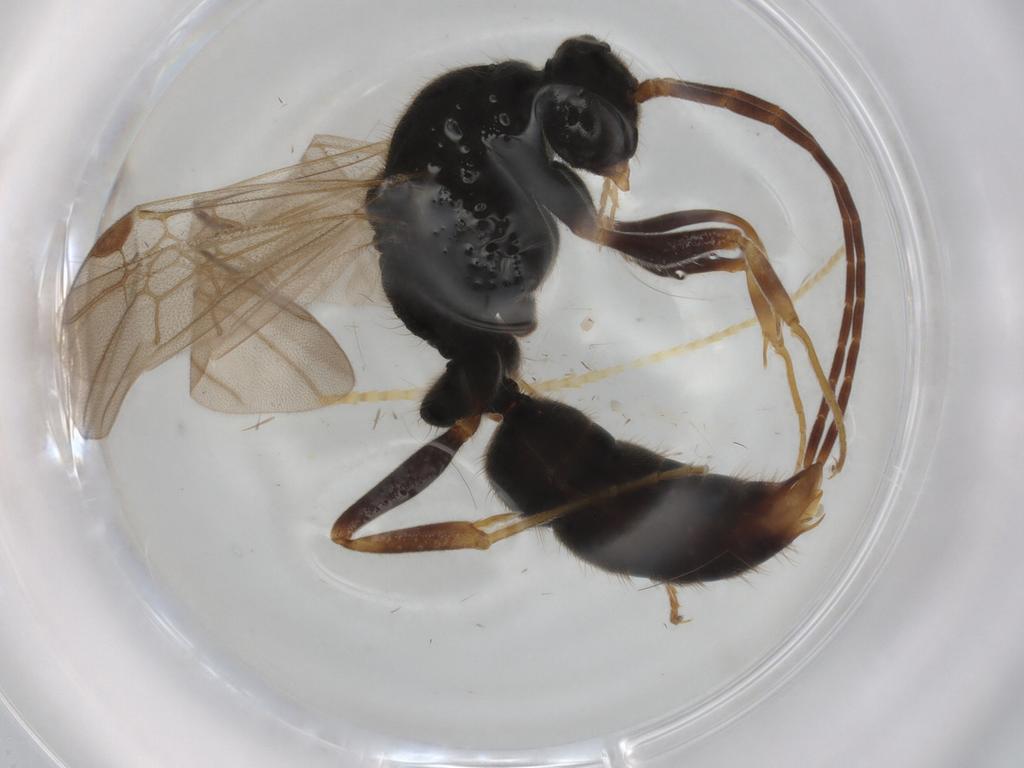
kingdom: Animalia
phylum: Arthropoda
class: Insecta
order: Hymenoptera
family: Formicidae
